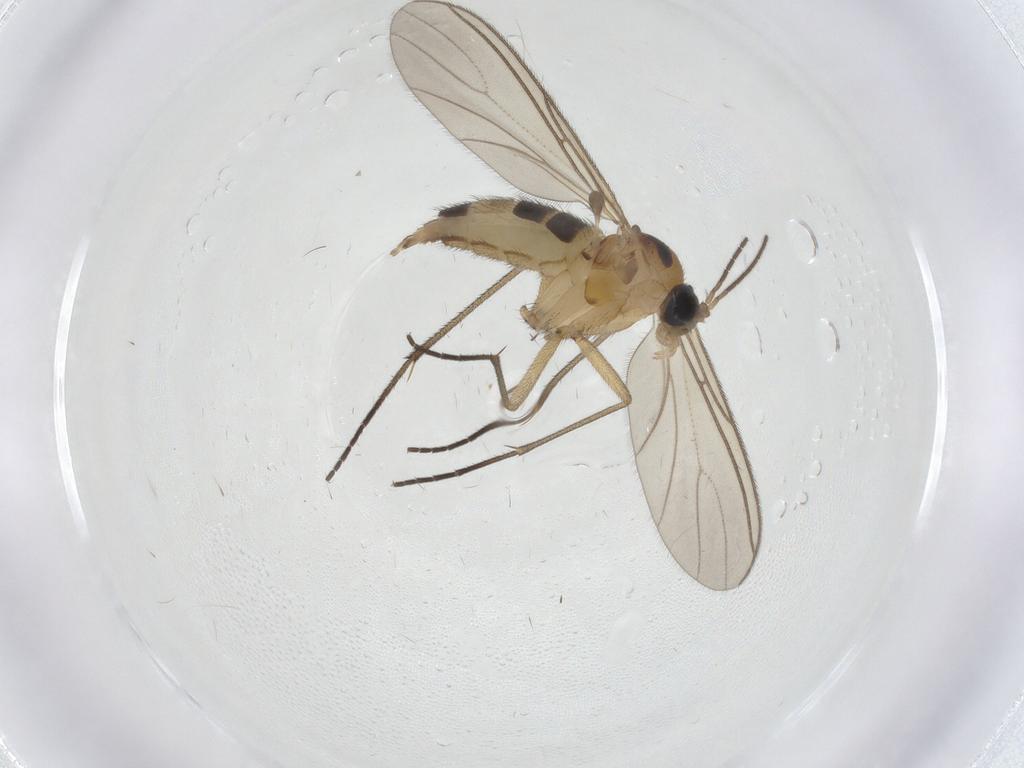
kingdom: Animalia
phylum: Arthropoda
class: Insecta
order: Diptera
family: Sciaridae
